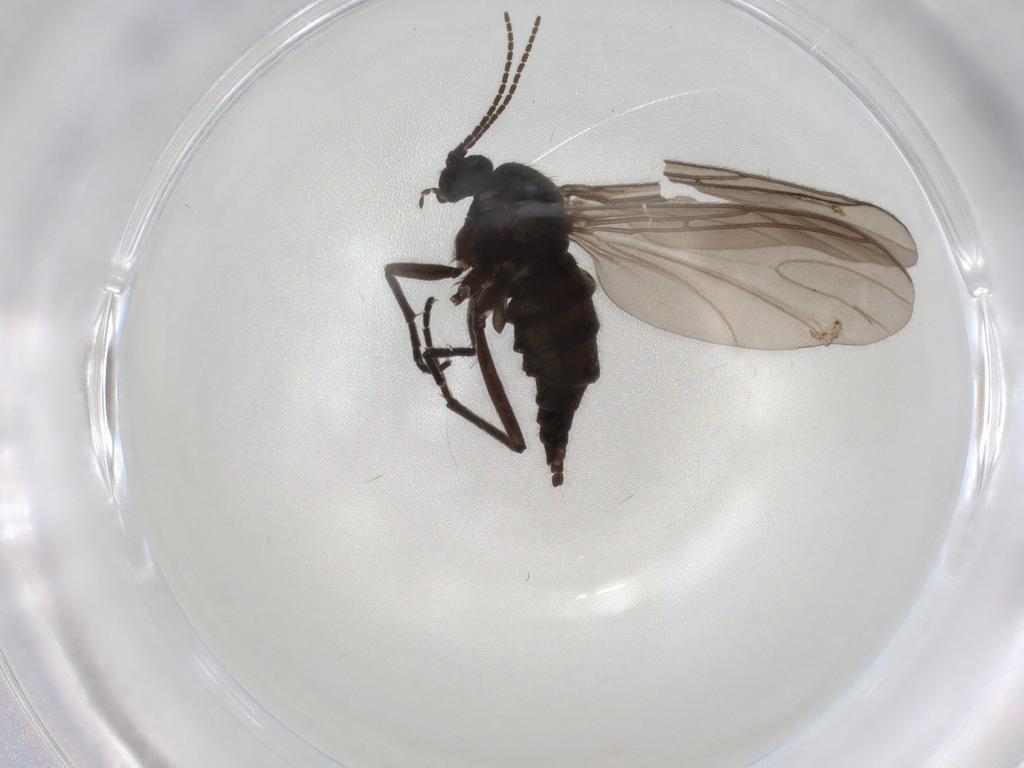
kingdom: Animalia
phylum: Arthropoda
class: Insecta
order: Diptera
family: Sciaridae
